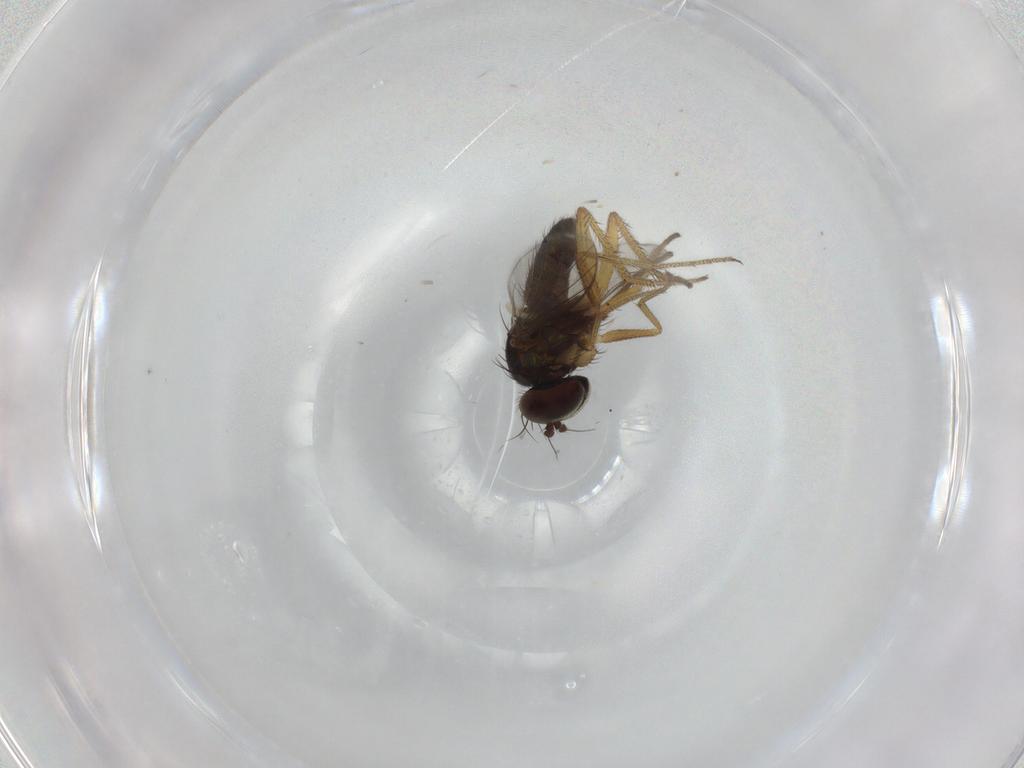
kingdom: Animalia
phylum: Arthropoda
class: Insecta
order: Diptera
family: Dolichopodidae
